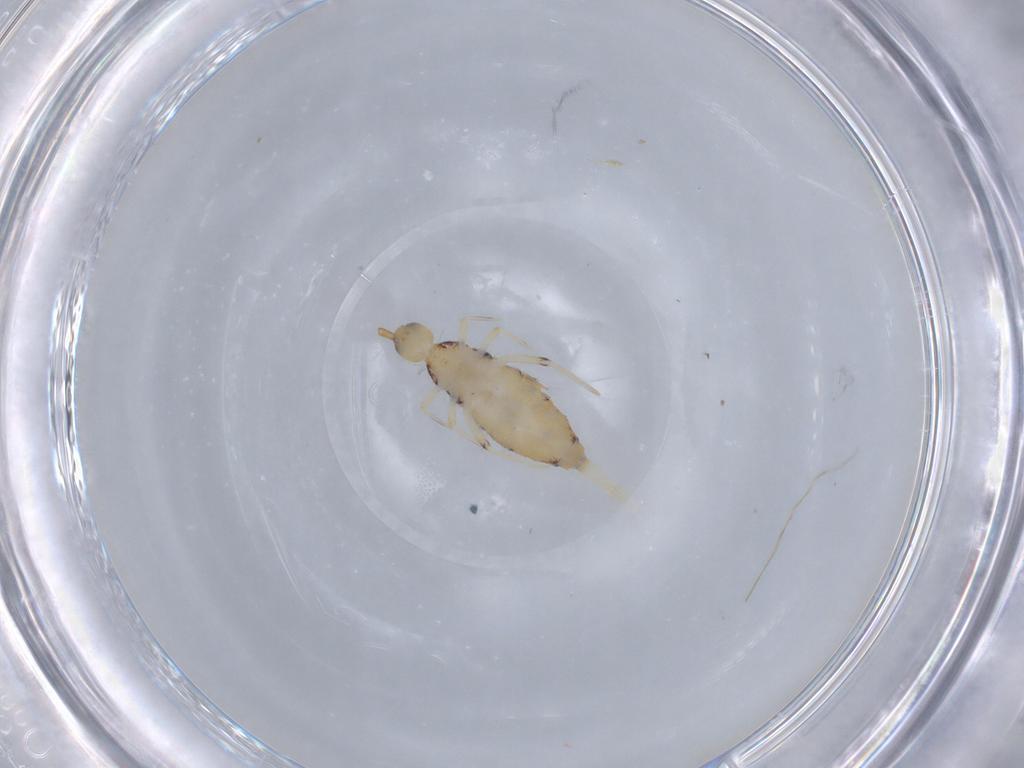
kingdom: Animalia
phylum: Arthropoda
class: Collembola
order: Entomobryomorpha
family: Entomobryidae
